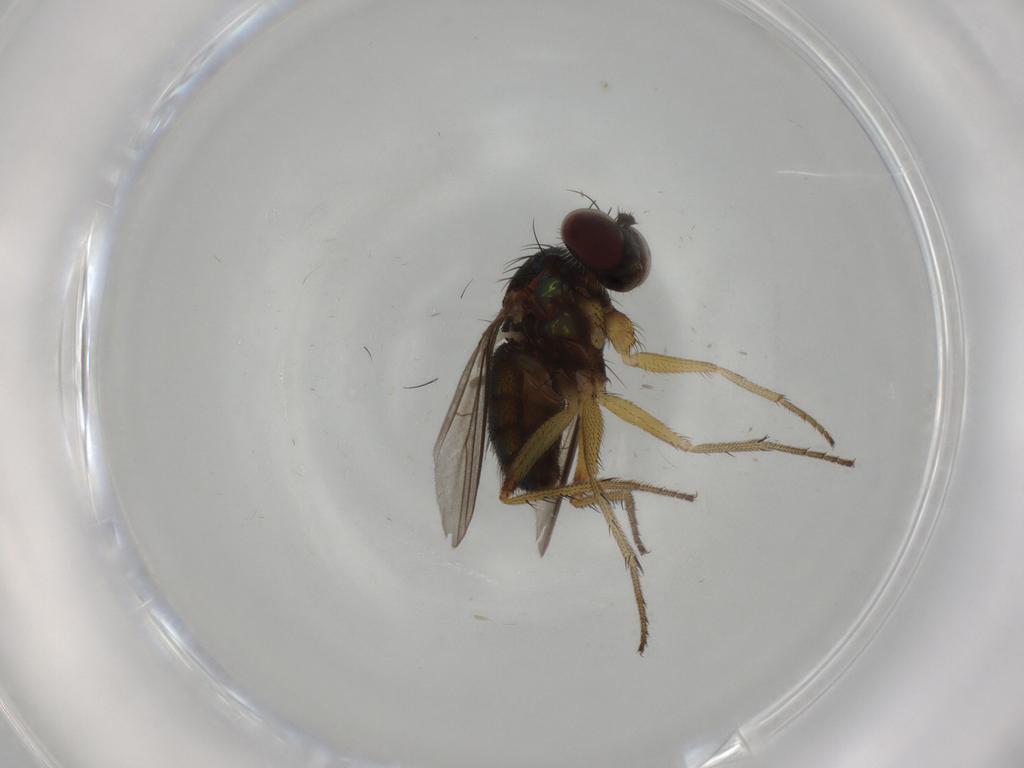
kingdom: Animalia
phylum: Arthropoda
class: Insecta
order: Diptera
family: Dolichopodidae
